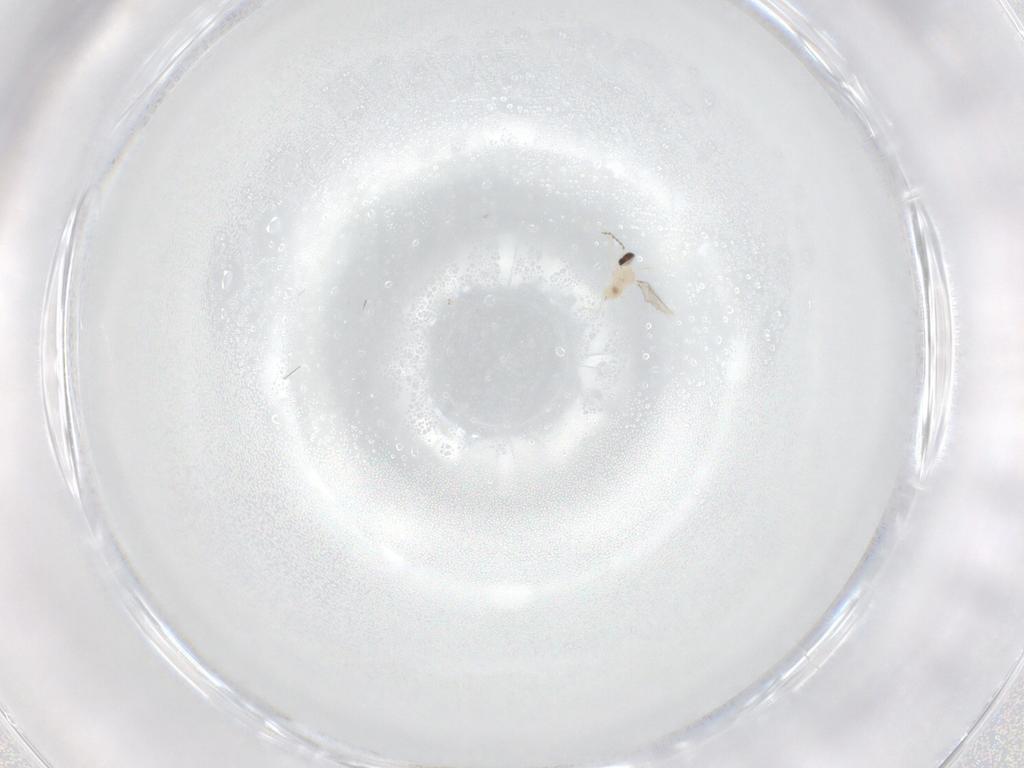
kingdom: Animalia
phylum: Arthropoda
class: Insecta
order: Diptera
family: Cecidomyiidae
